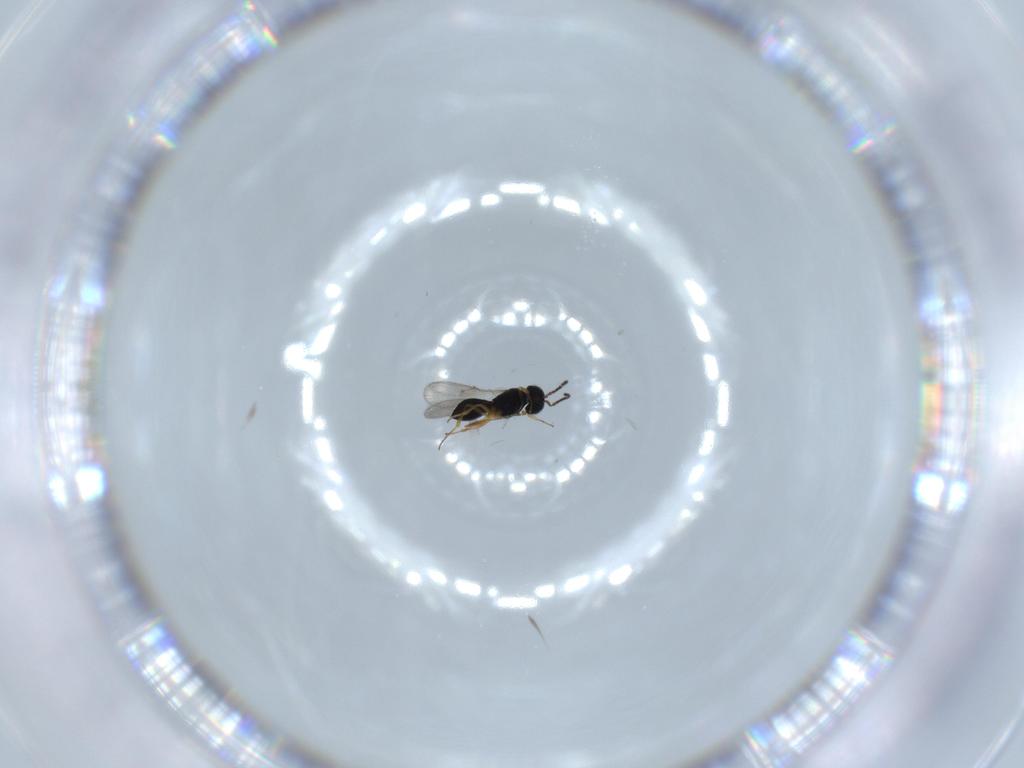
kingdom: Animalia
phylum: Arthropoda
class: Insecta
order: Hymenoptera
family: Scelionidae
